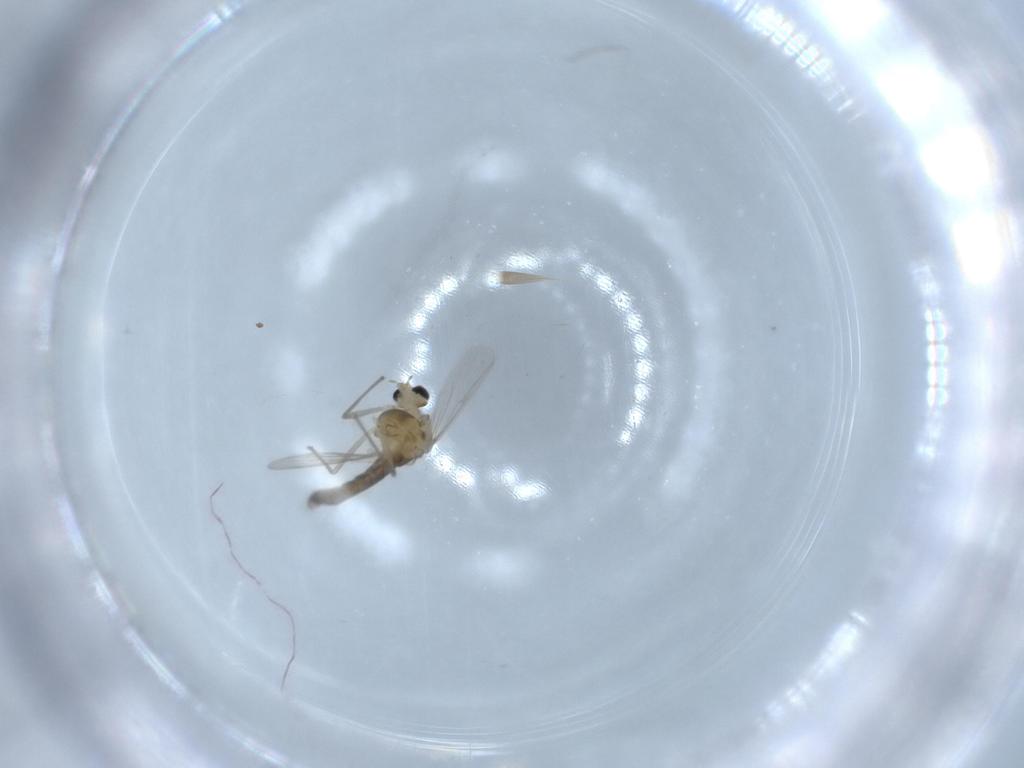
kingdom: Animalia
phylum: Arthropoda
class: Insecta
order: Diptera
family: Chironomidae
